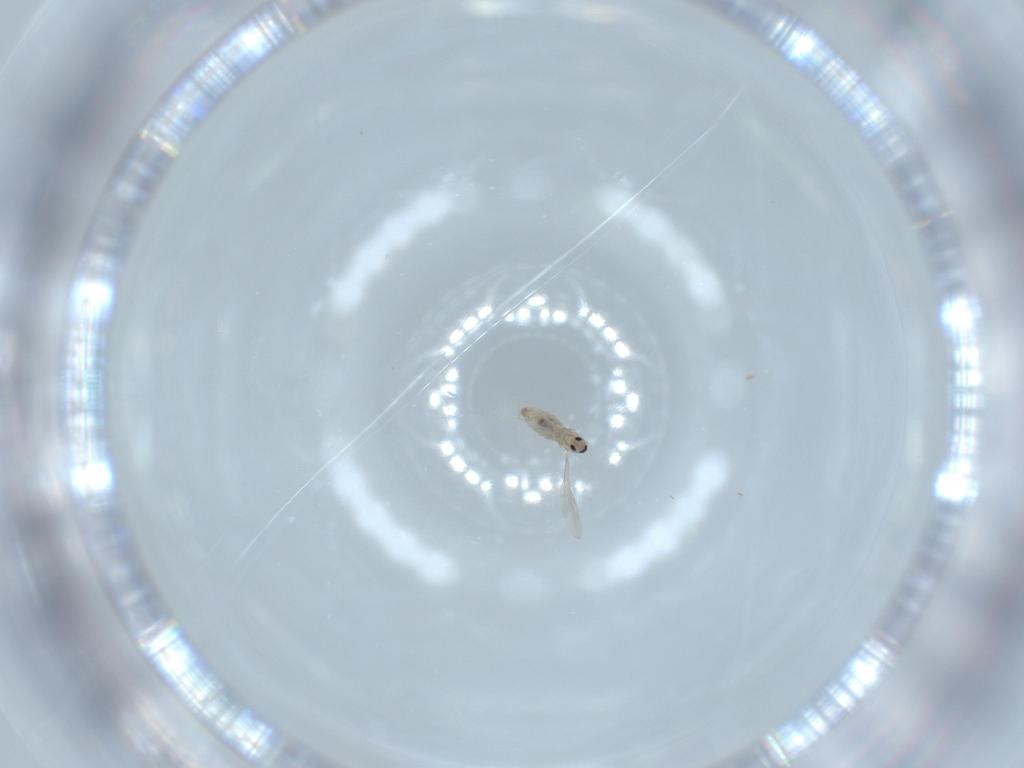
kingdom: Animalia
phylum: Arthropoda
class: Insecta
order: Diptera
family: Cecidomyiidae
